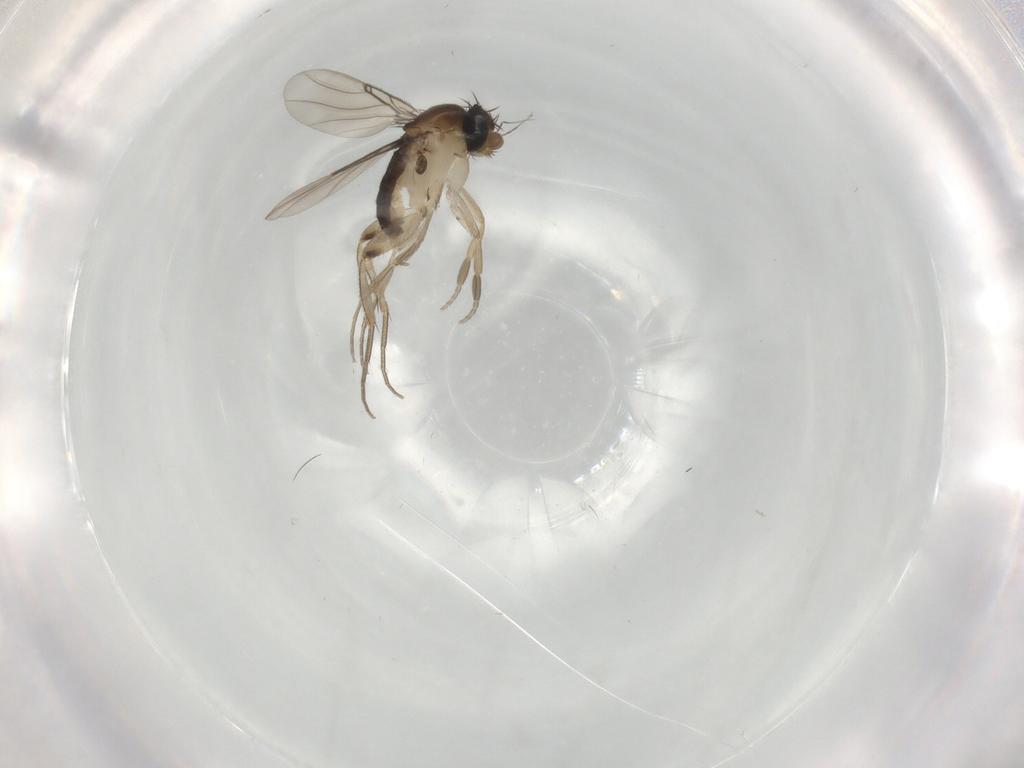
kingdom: Animalia
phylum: Arthropoda
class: Insecta
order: Diptera
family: Phoridae
